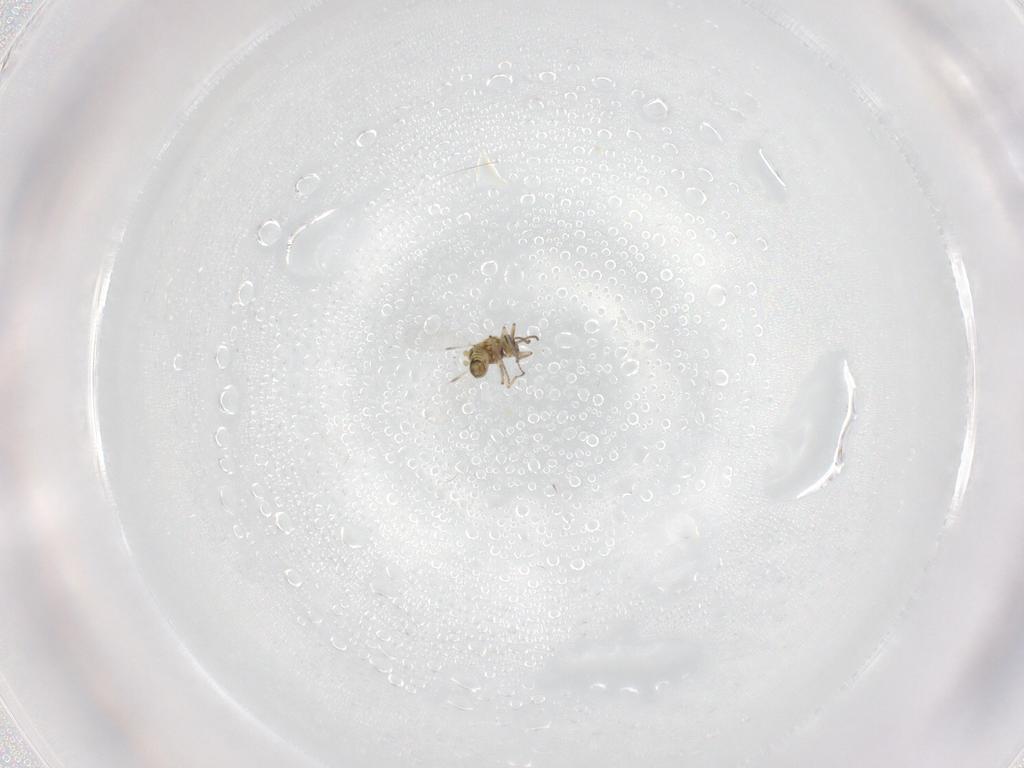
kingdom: Animalia
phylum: Arthropoda
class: Insecta
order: Diptera
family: Ceratopogonidae
